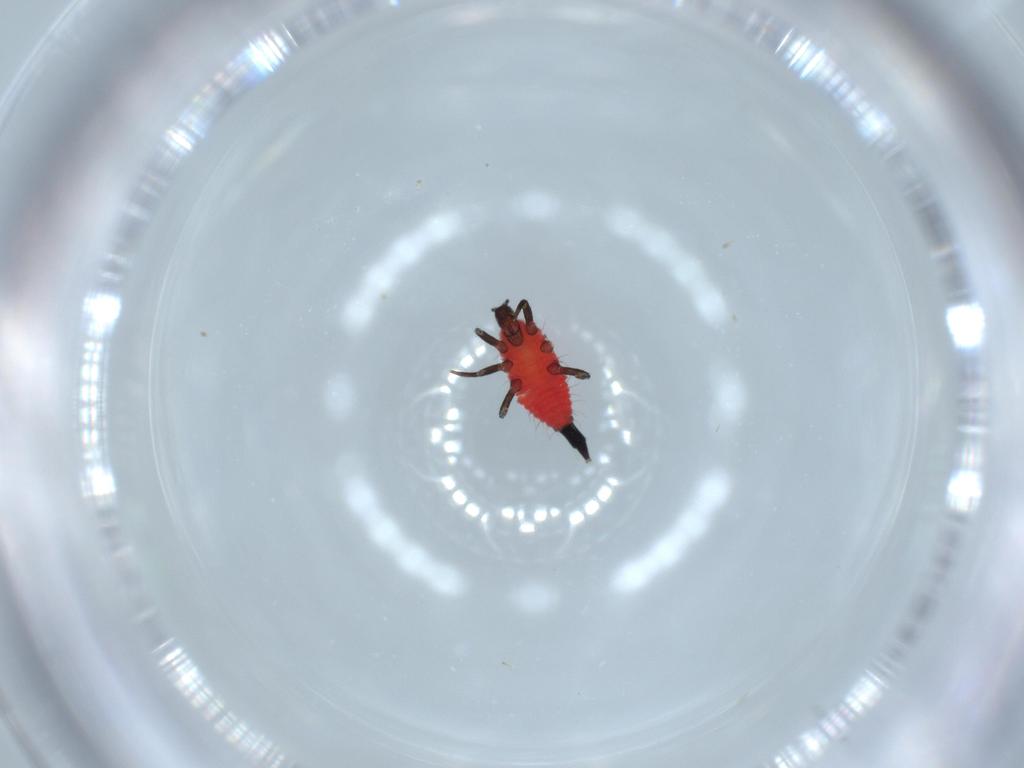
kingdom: Animalia
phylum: Arthropoda
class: Insecta
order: Thysanoptera
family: Phlaeothripidae
